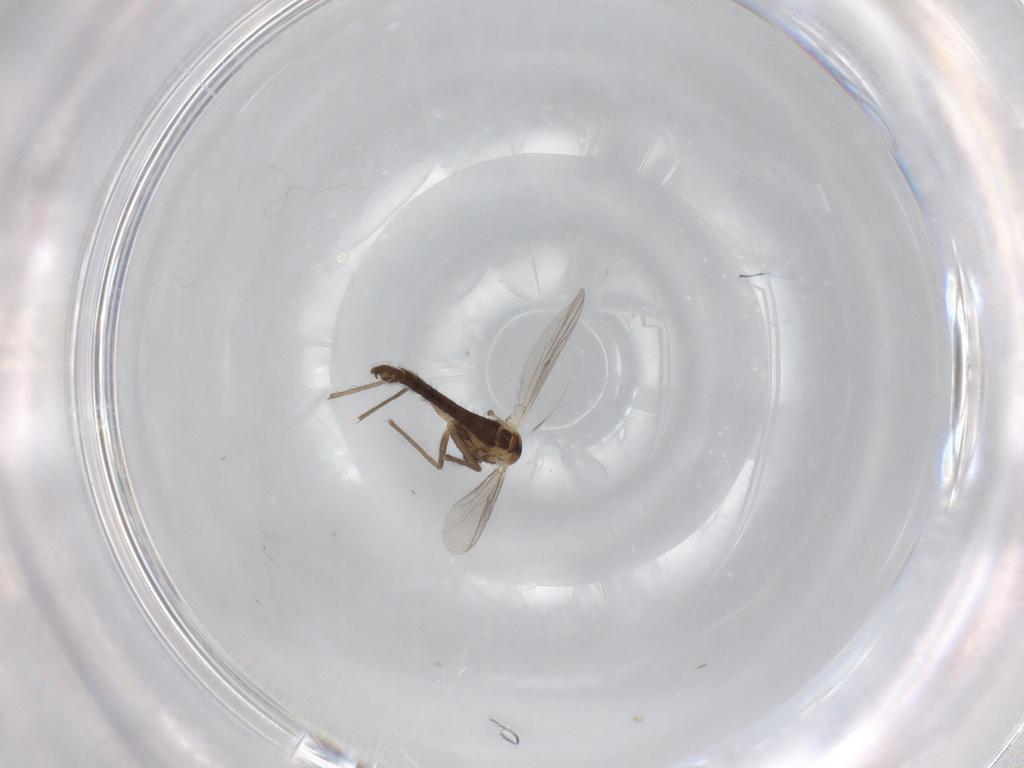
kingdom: Animalia
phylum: Arthropoda
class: Insecta
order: Diptera
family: Chironomidae
